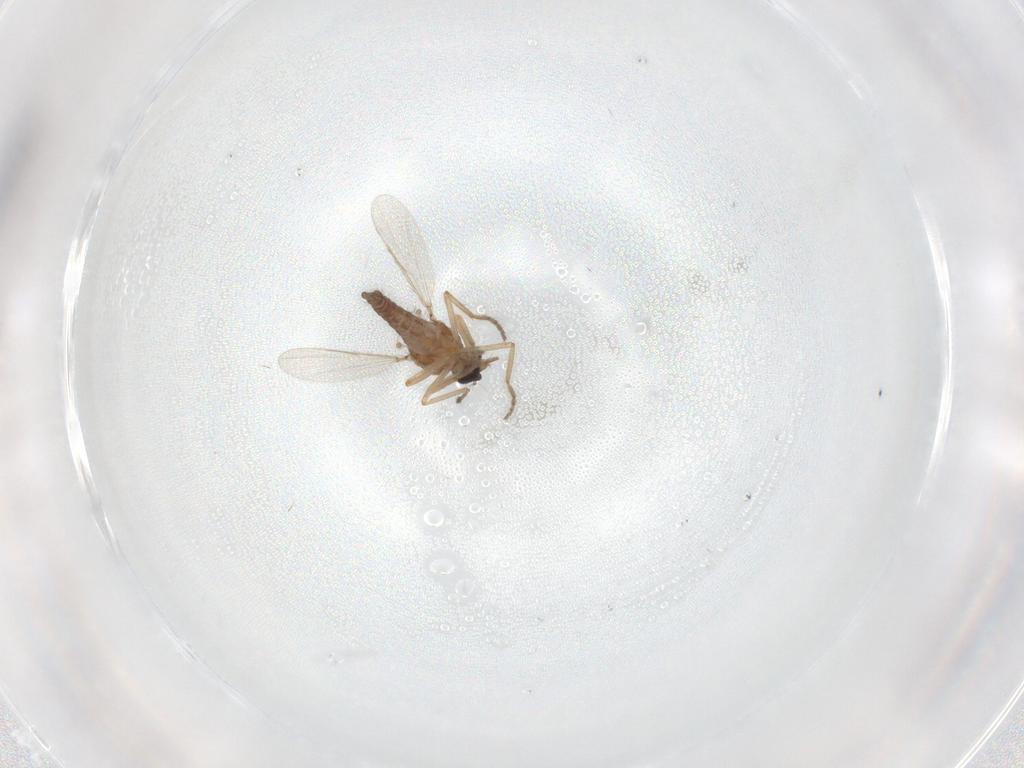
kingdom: Animalia
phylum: Arthropoda
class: Insecta
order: Diptera
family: Ceratopogonidae
